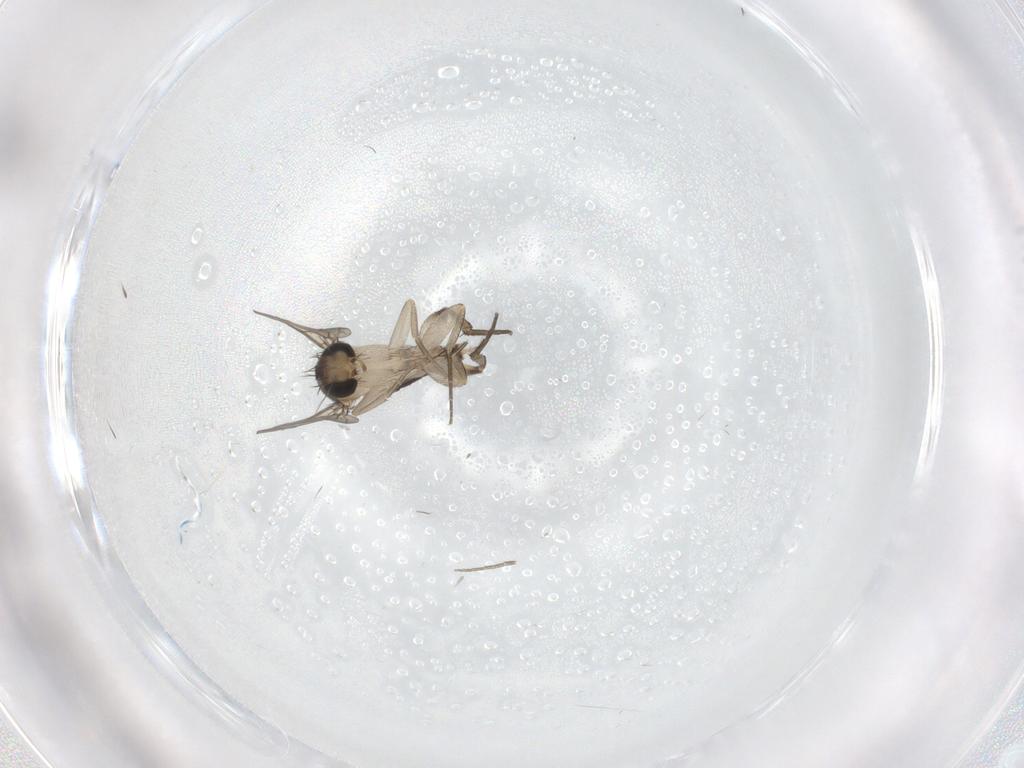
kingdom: Animalia
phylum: Arthropoda
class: Insecta
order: Diptera
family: Phoridae
